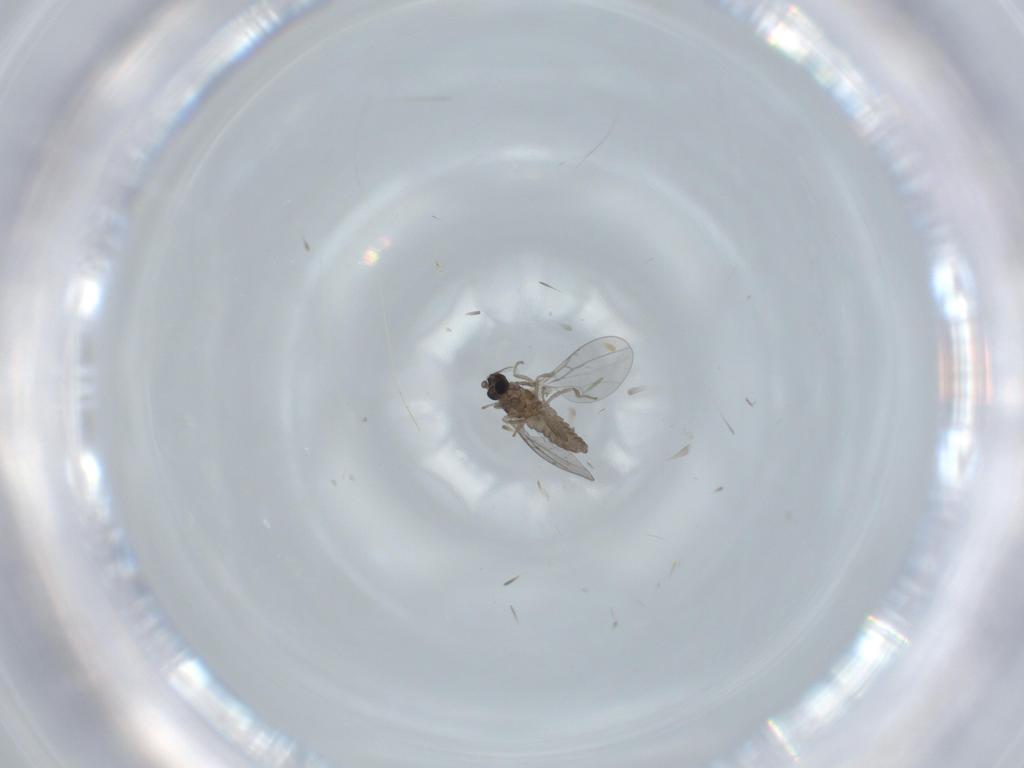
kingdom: Animalia
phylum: Arthropoda
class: Insecta
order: Diptera
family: Cecidomyiidae
